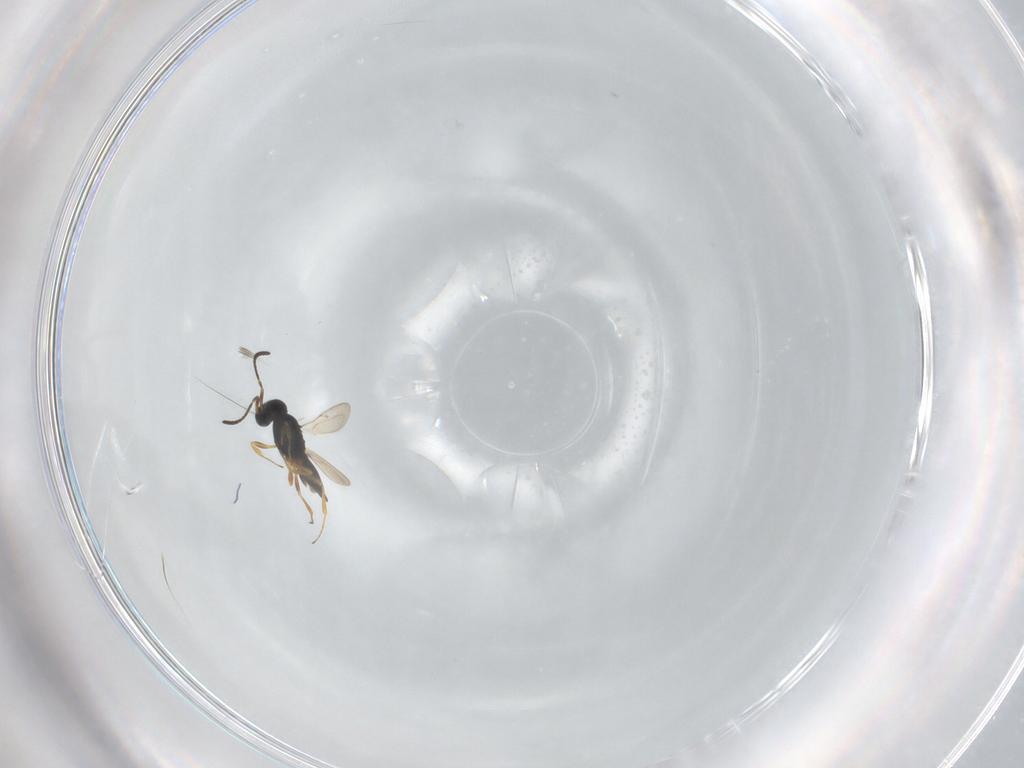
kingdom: Animalia
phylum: Arthropoda
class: Insecta
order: Hymenoptera
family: Scelionidae
